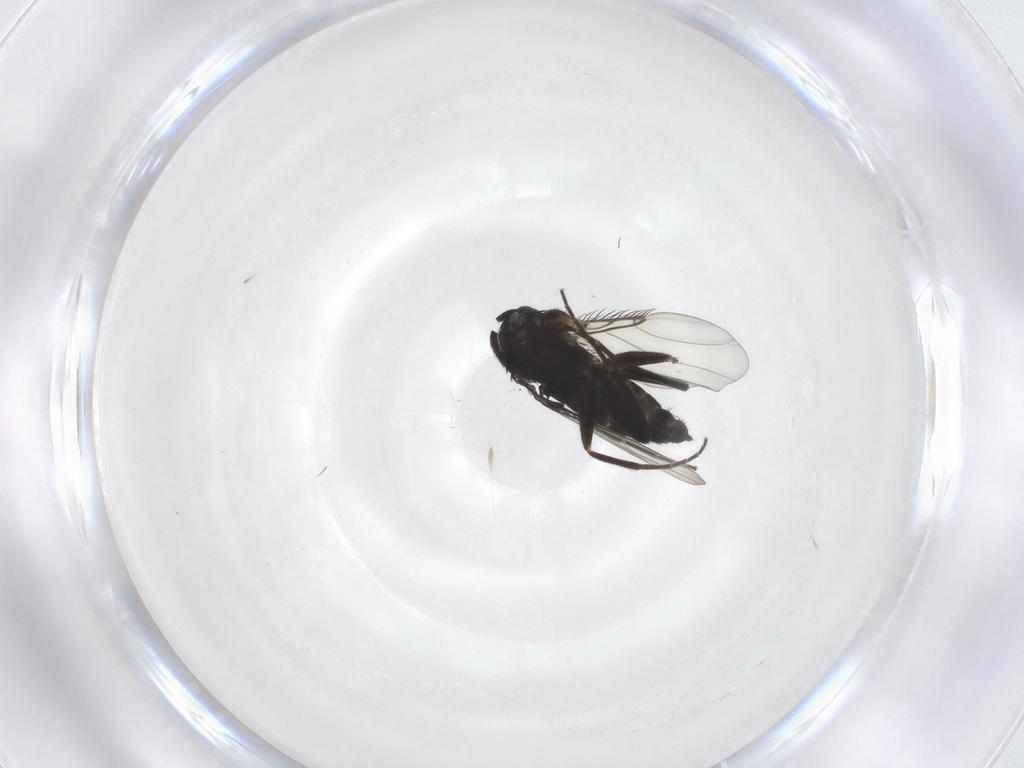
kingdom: Animalia
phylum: Arthropoda
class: Insecta
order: Diptera
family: Phoridae
